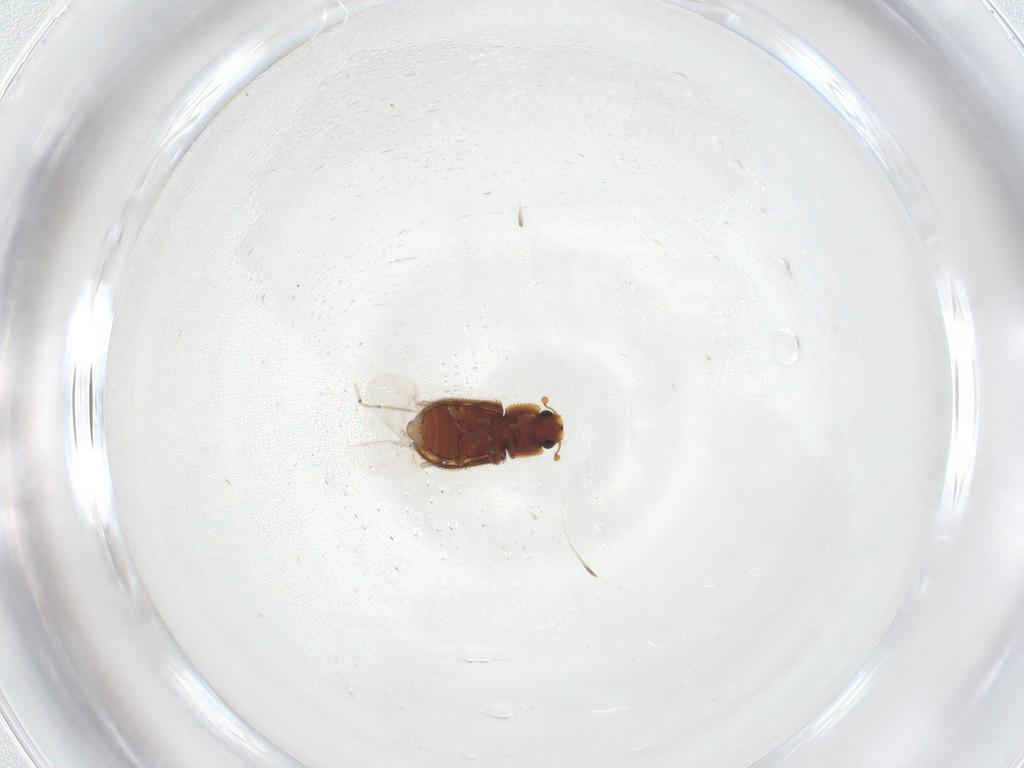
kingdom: Animalia
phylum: Arthropoda
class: Insecta
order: Coleoptera
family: Zopheridae
